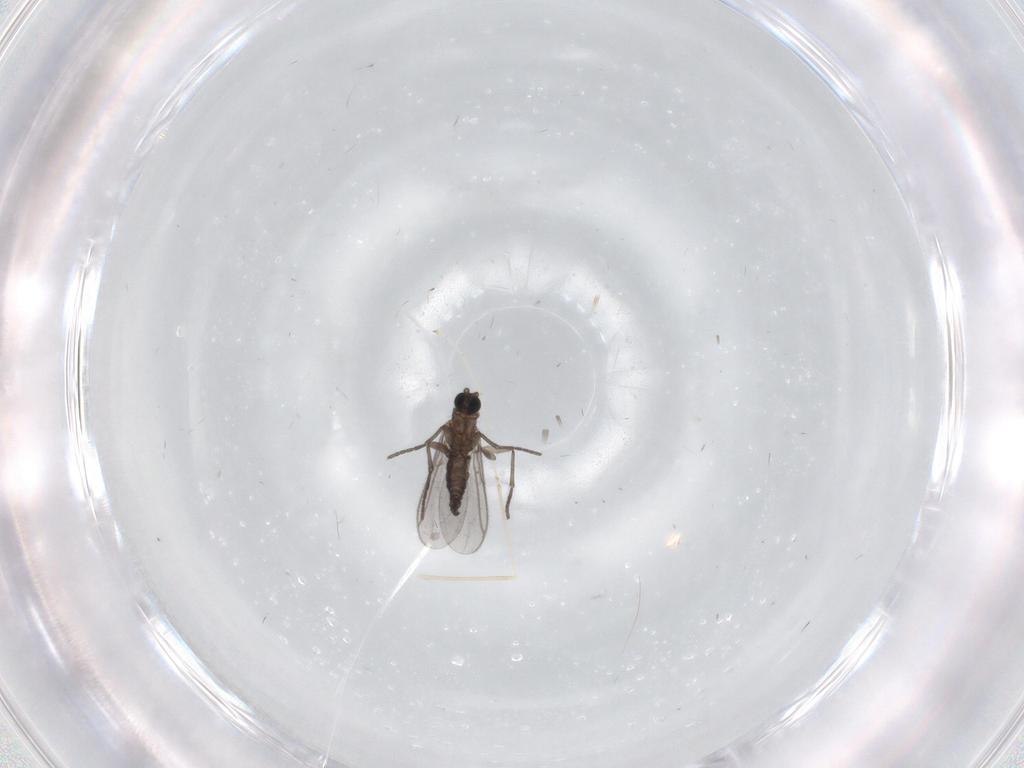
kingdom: Animalia
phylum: Arthropoda
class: Insecta
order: Diptera
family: Cecidomyiidae
